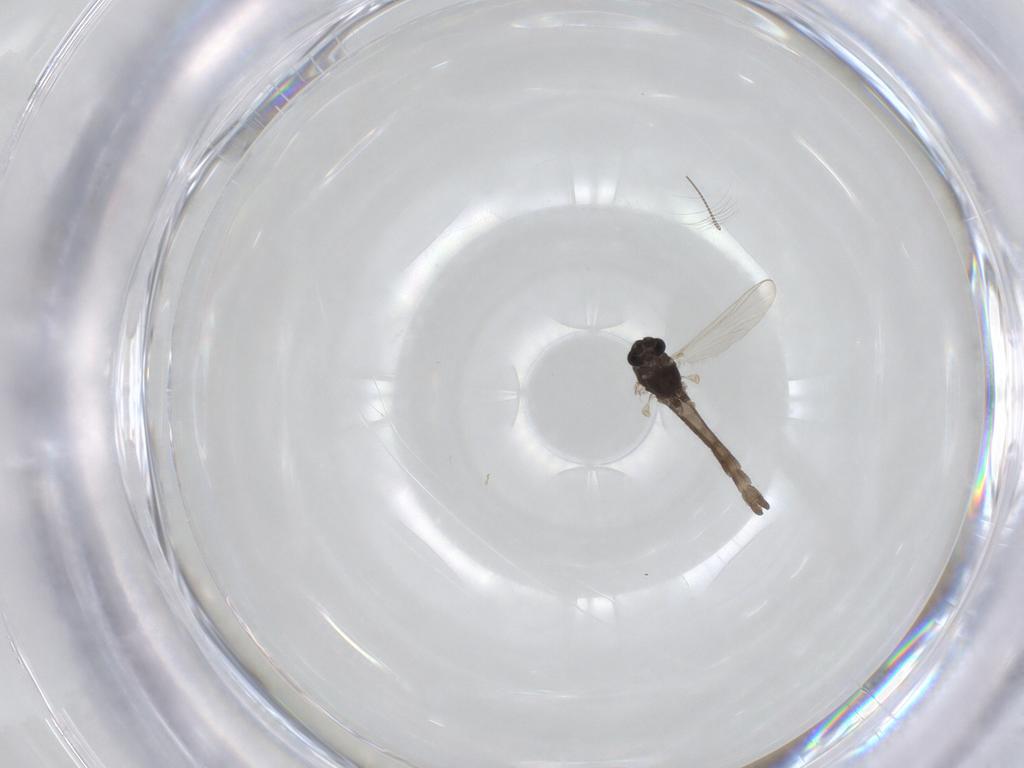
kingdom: Animalia
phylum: Arthropoda
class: Insecta
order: Diptera
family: Chironomidae
